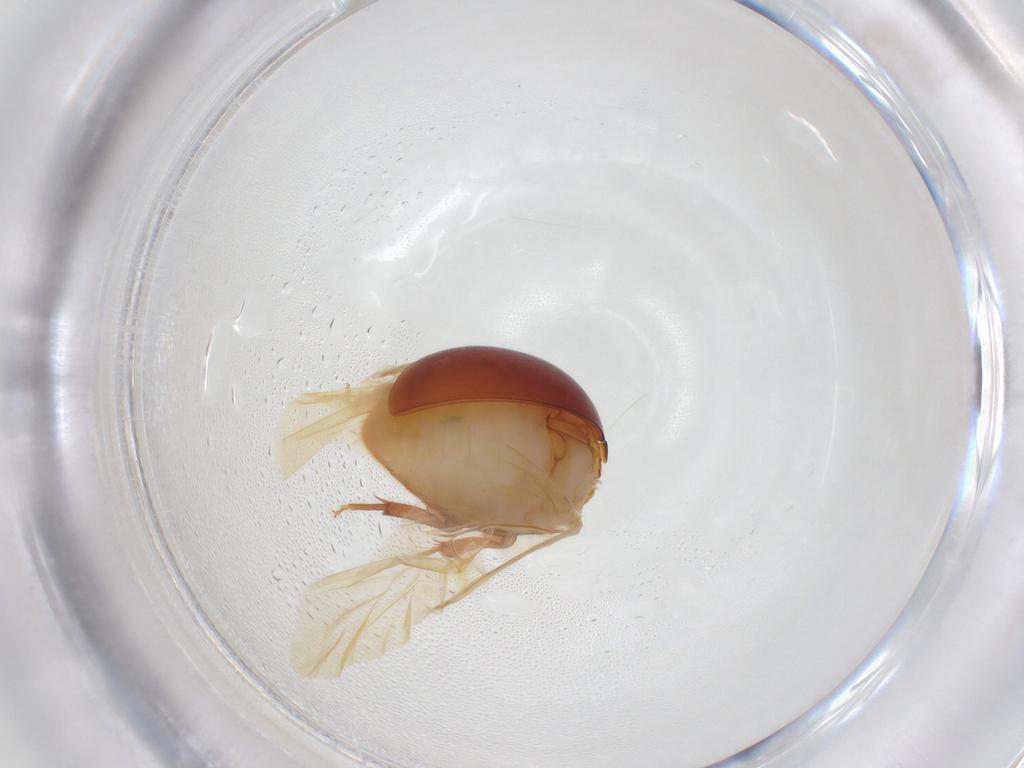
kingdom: Animalia
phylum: Arthropoda
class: Insecta
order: Coleoptera
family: Phalacridae
